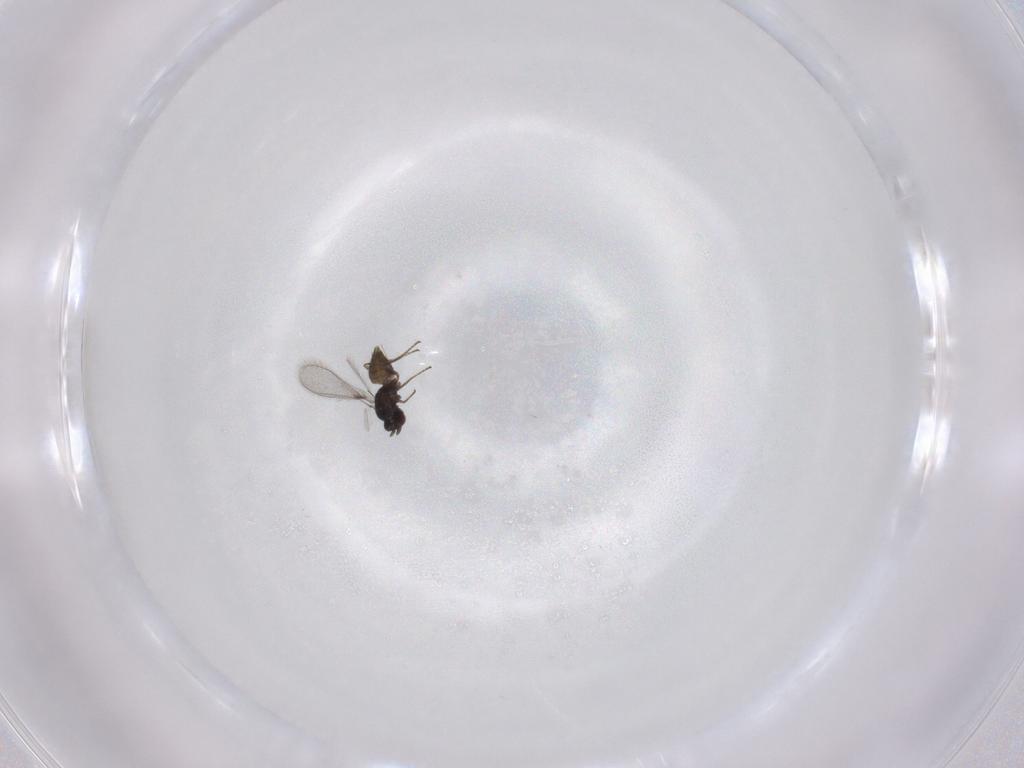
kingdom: Animalia
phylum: Arthropoda
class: Insecta
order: Hymenoptera
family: Mymaridae
